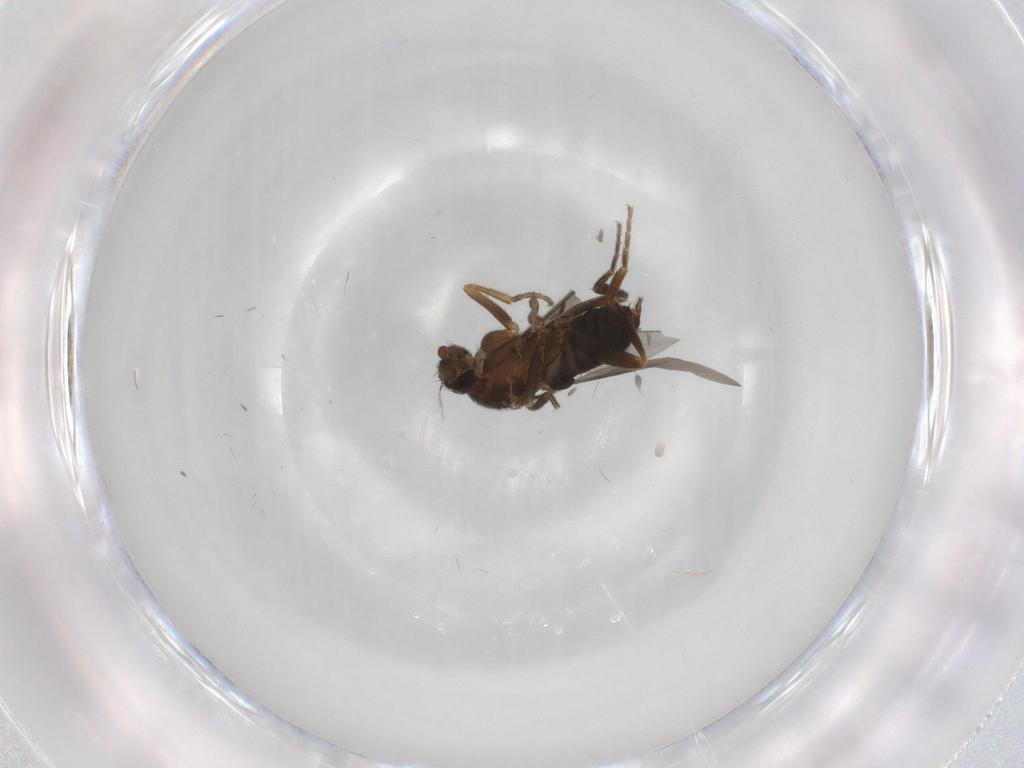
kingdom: Animalia
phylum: Arthropoda
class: Insecta
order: Diptera
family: Phoridae
